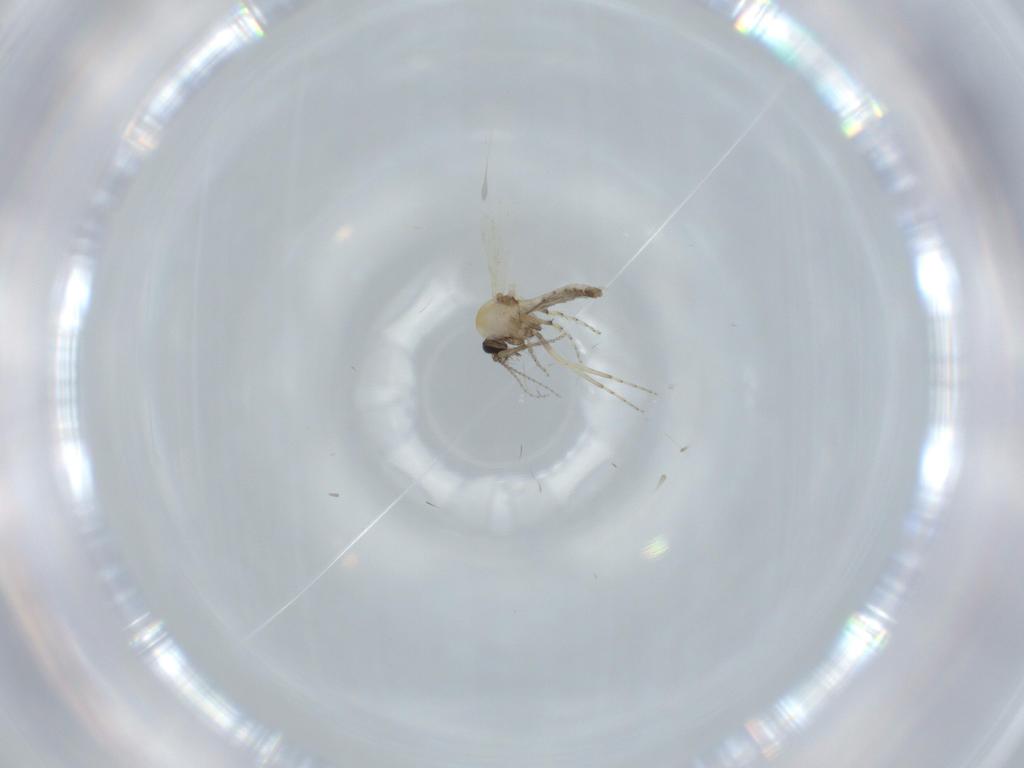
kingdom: Animalia
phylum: Arthropoda
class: Insecta
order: Diptera
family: Ceratopogonidae
